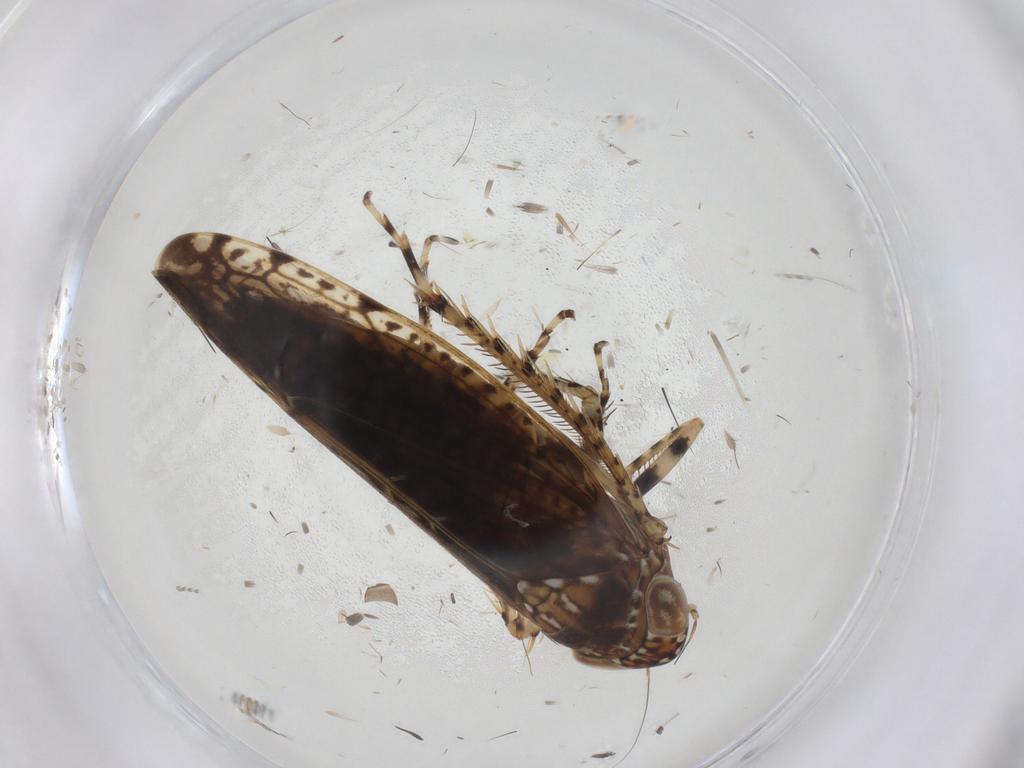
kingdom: Animalia
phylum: Arthropoda
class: Insecta
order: Hemiptera
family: Cicadellidae
